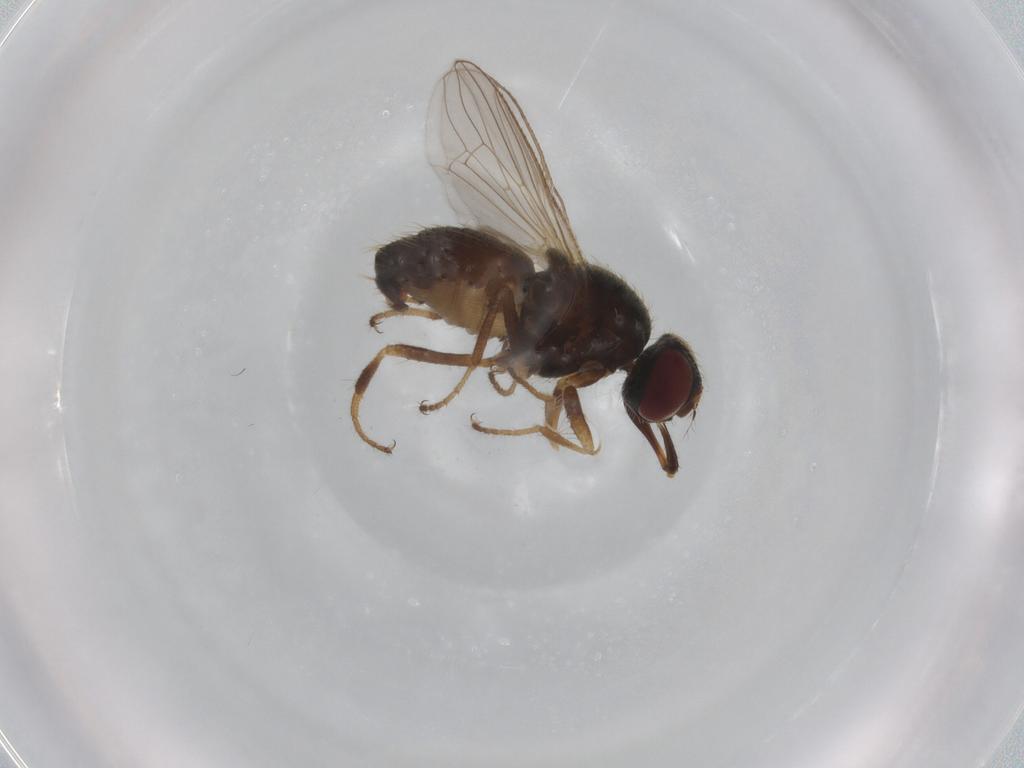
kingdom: Animalia
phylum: Arthropoda
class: Insecta
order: Diptera
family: Muscidae
